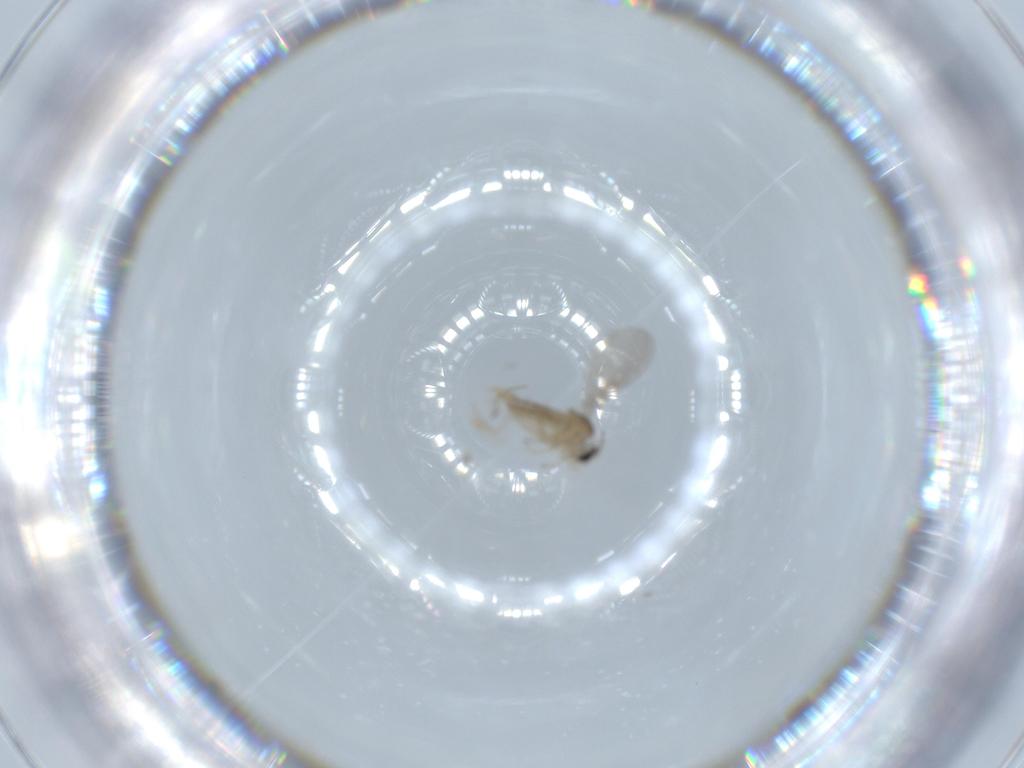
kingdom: Animalia
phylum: Arthropoda
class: Insecta
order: Diptera
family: Cecidomyiidae
